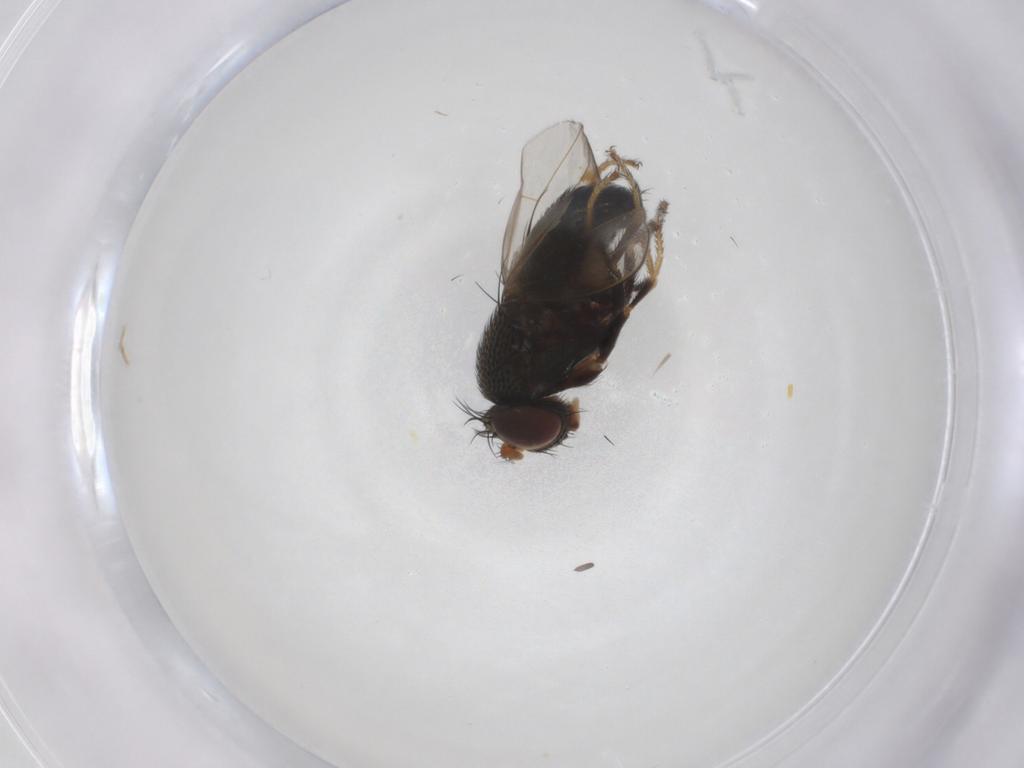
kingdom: Animalia
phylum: Arthropoda
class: Insecta
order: Diptera
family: Ephydridae
